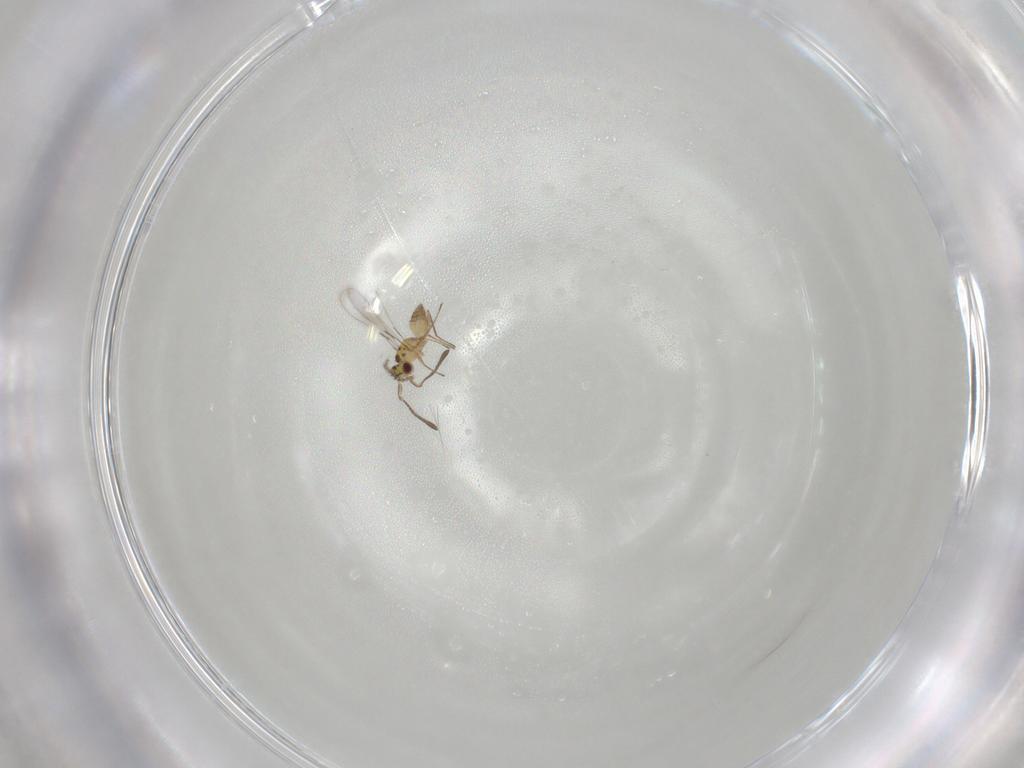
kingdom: Animalia
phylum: Arthropoda
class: Insecta
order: Hymenoptera
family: Mymaridae
